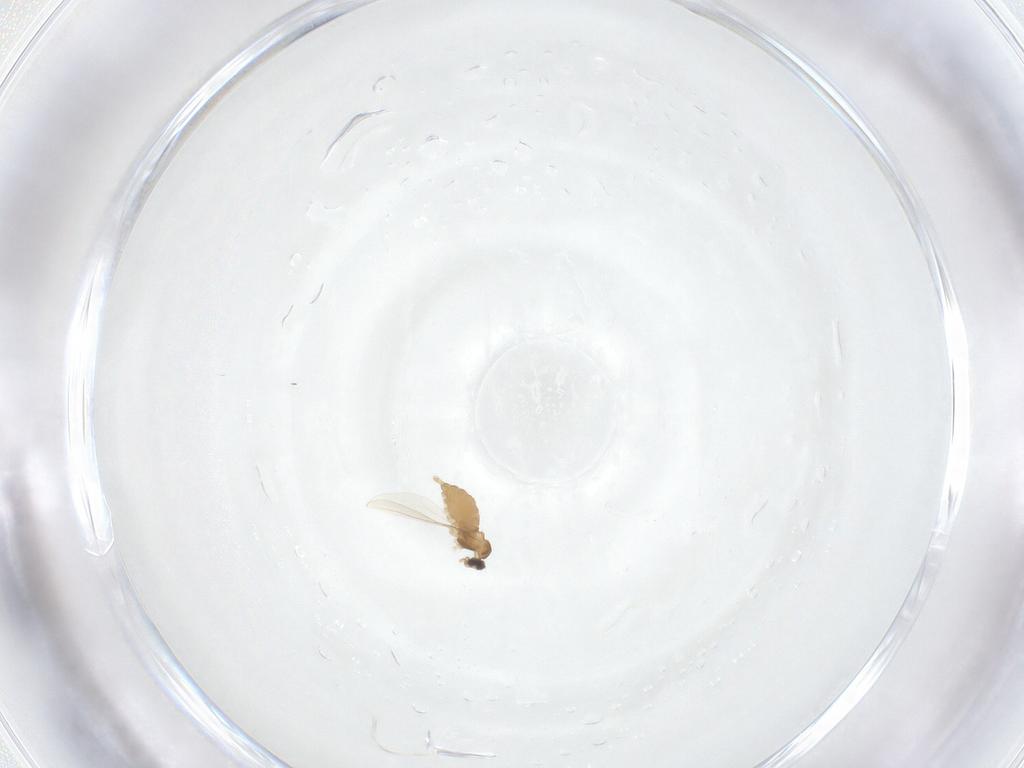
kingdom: Animalia
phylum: Arthropoda
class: Insecta
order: Diptera
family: Cecidomyiidae
